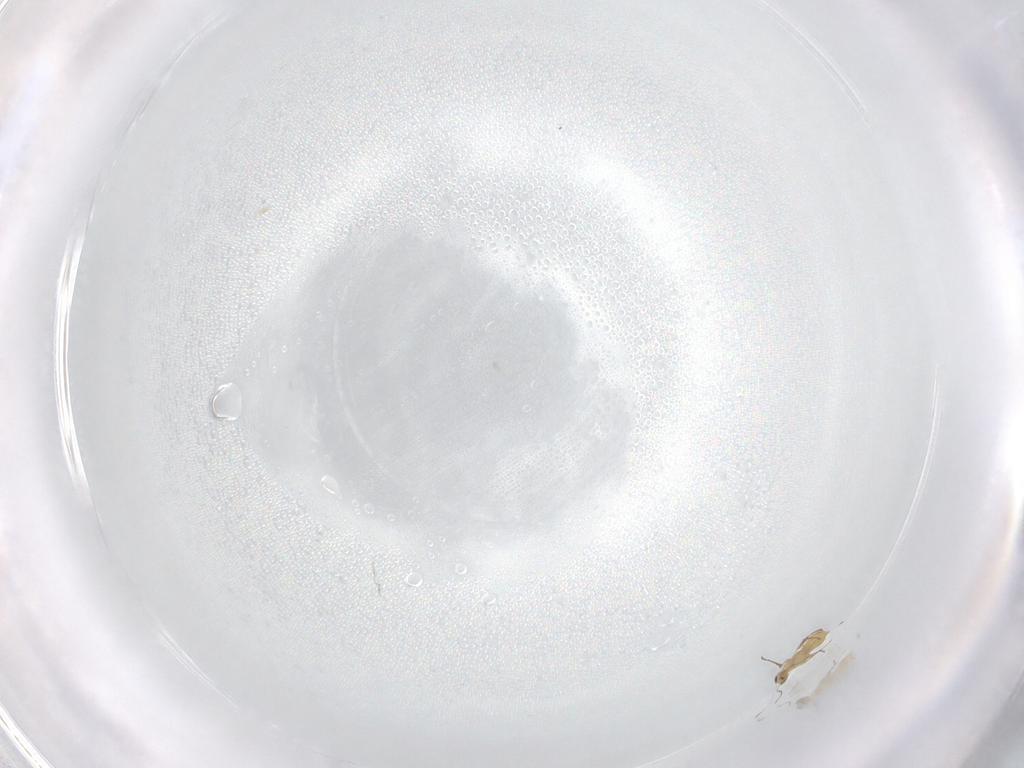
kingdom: Animalia
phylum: Arthropoda
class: Insecta
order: Hymenoptera
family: Mymaridae
